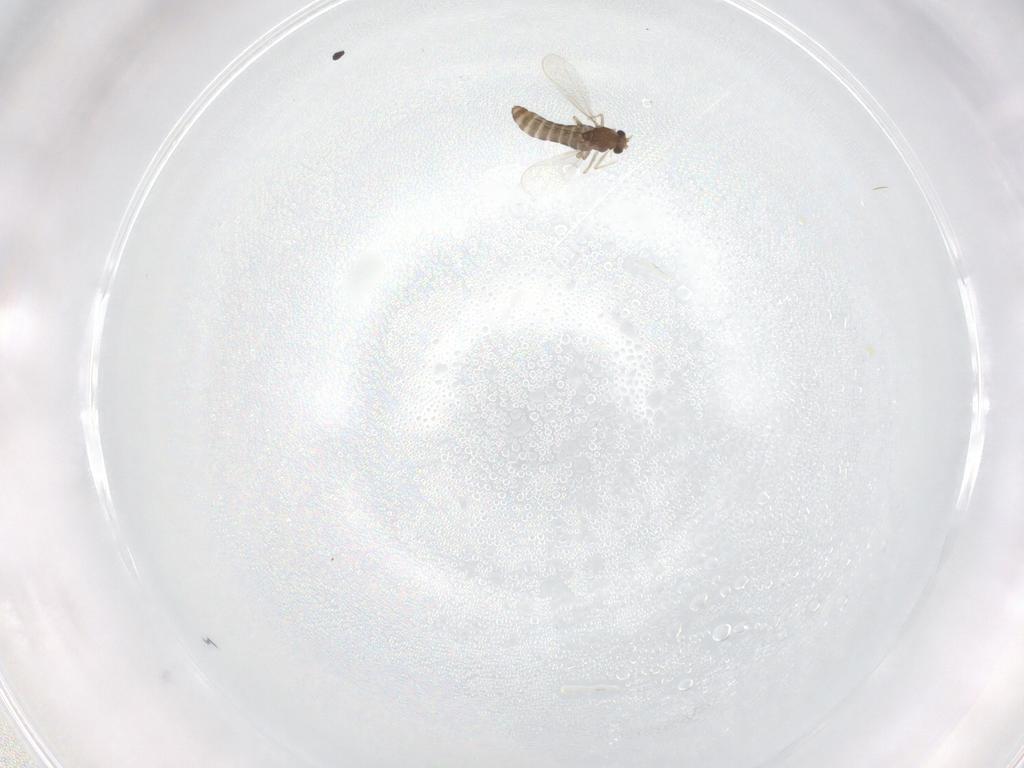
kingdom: Animalia
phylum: Arthropoda
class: Insecta
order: Diptera
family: Chironomidae
